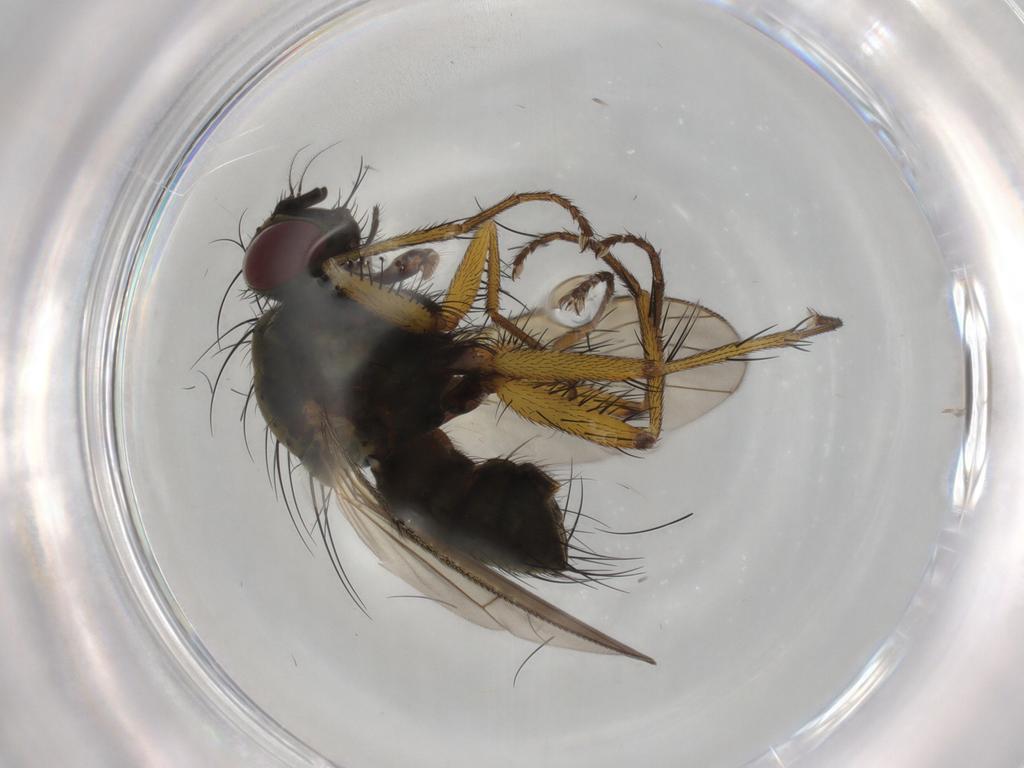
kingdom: Animalia
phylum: Arthropoda
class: Insecta
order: Diptera
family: Muscidae
